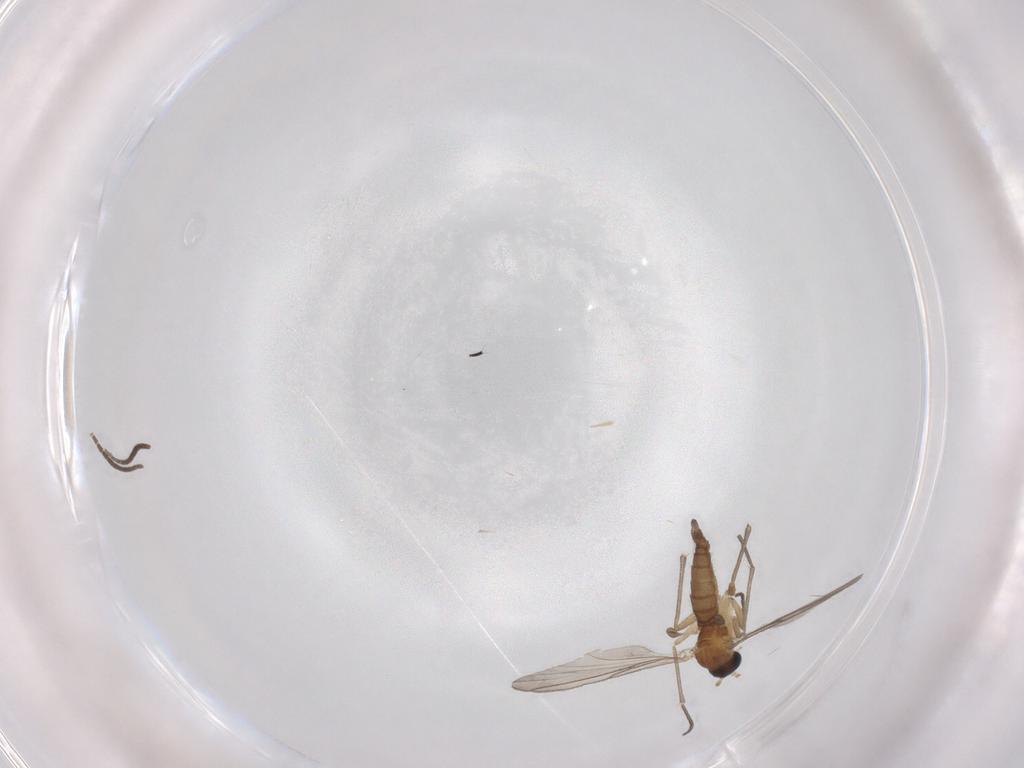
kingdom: Animalia
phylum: Arthropoda
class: Insecta
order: Diptera
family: Sciaridae
